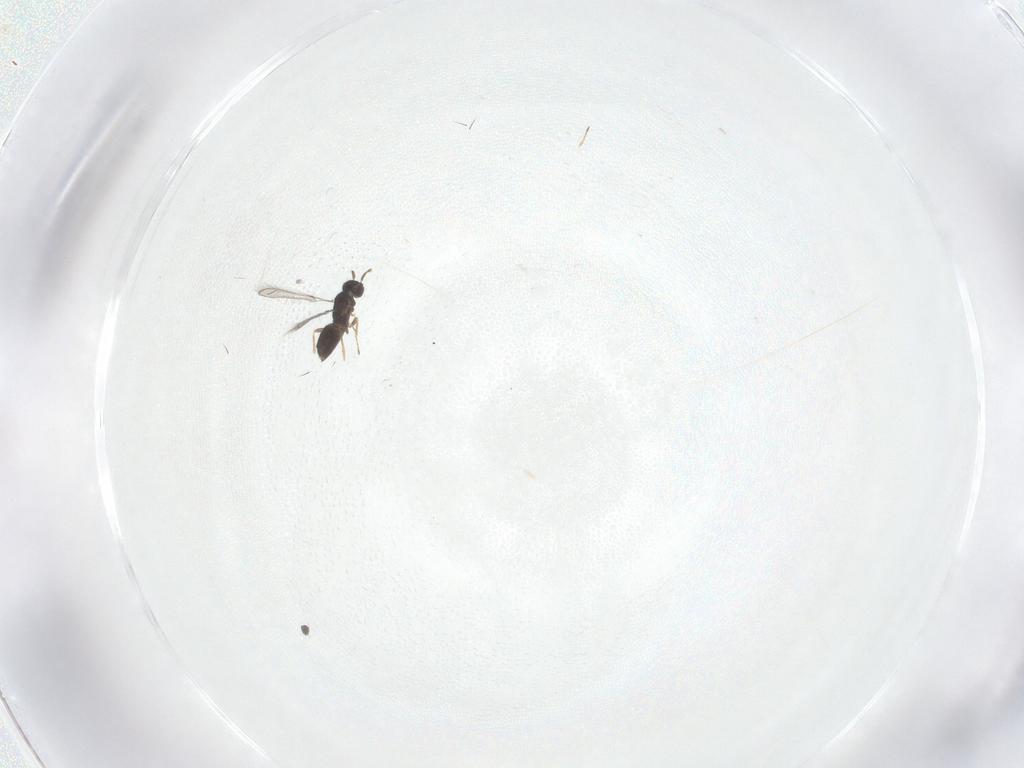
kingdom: Animalia
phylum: Arthropoda
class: Insecta
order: Hymenoptera
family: Mymaridae
